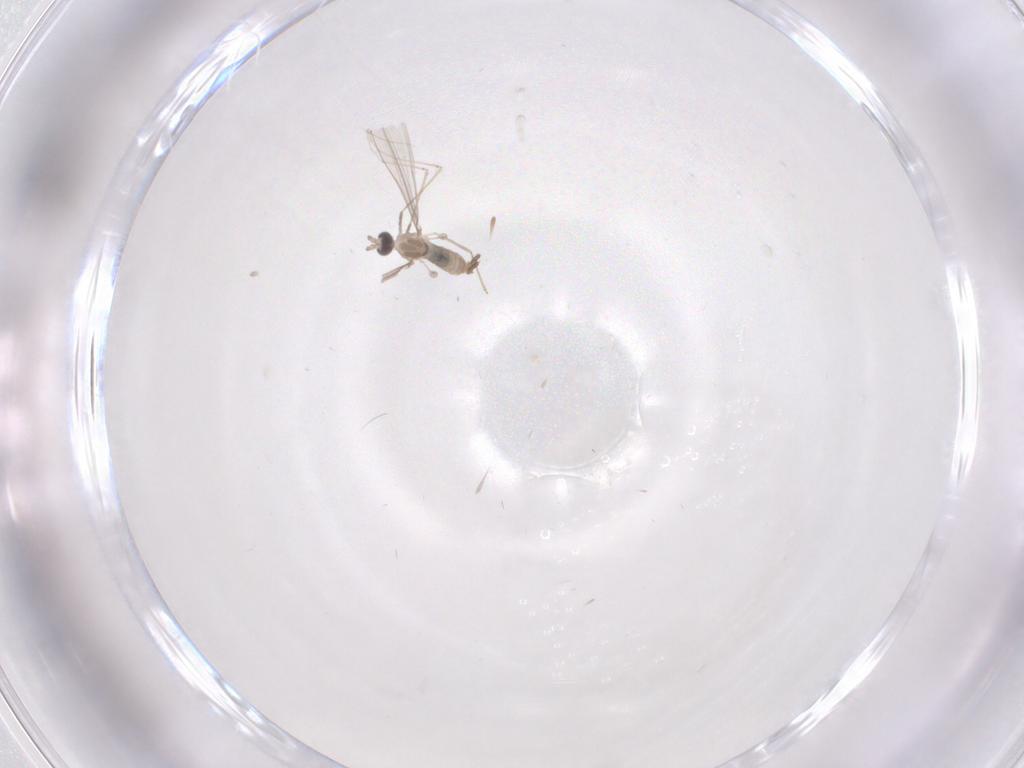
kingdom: Animalia
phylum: Arthropoda
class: Insecta
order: Diptera
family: Cecidomyiidae
